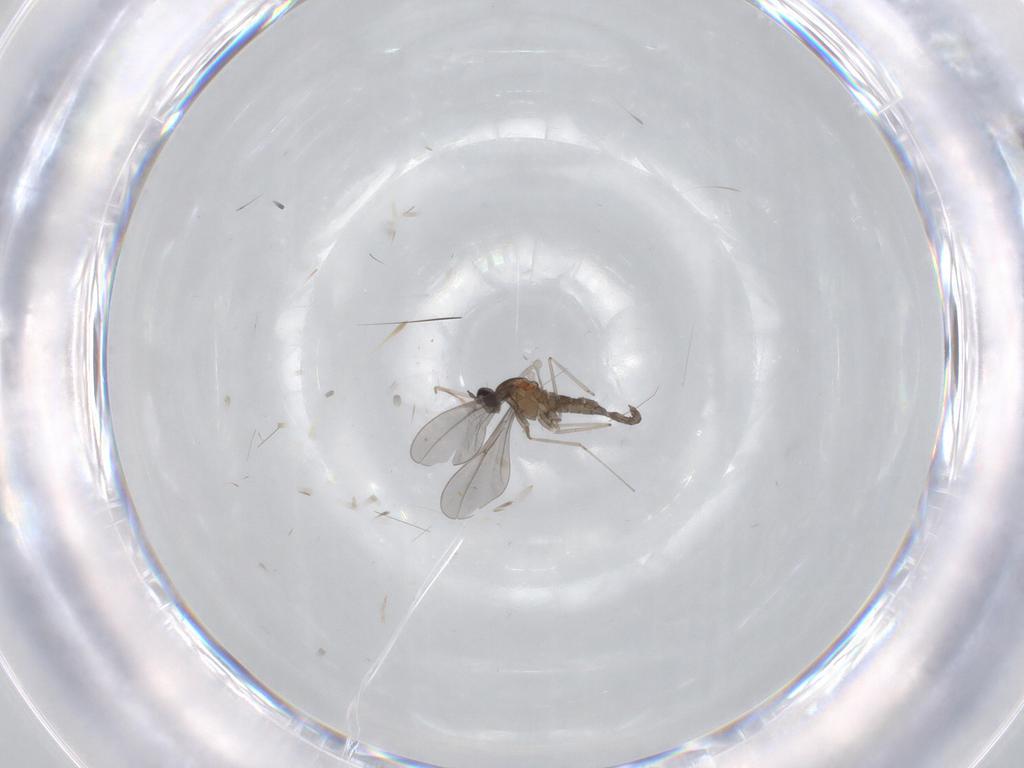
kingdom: Animalia
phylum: Arthropoda
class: Insecta
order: Diptera
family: Cecidomyiidae
